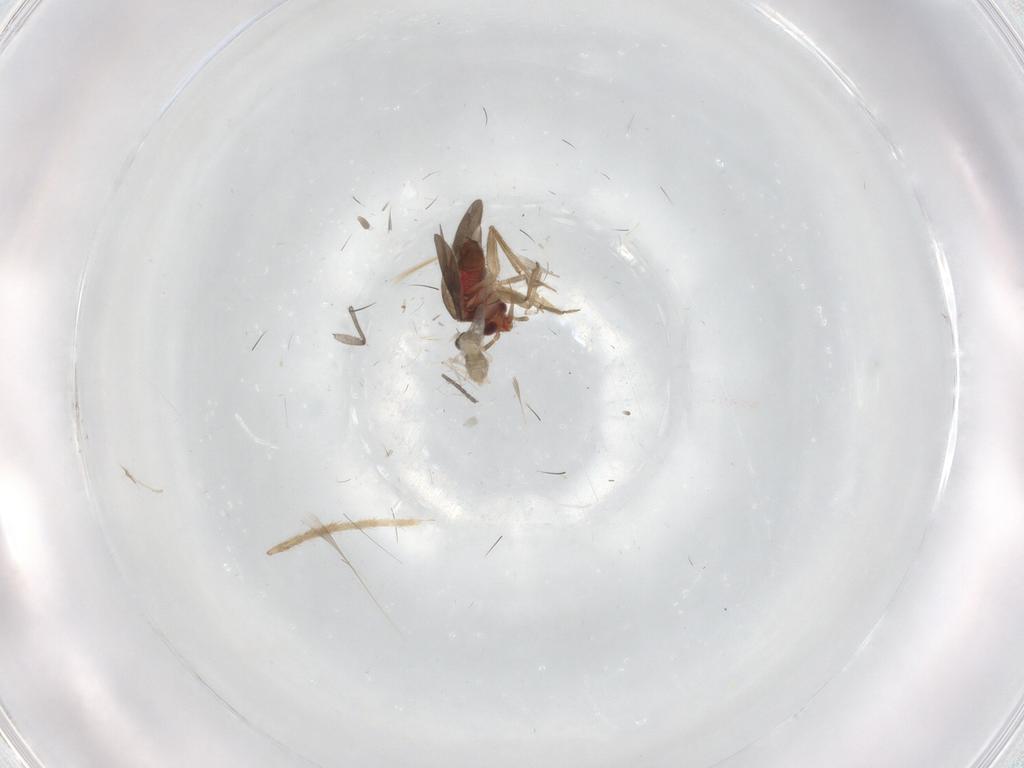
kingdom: Animalia
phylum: Arthropoda
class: Insecta
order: Hemiptera
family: Ceratocombidae
